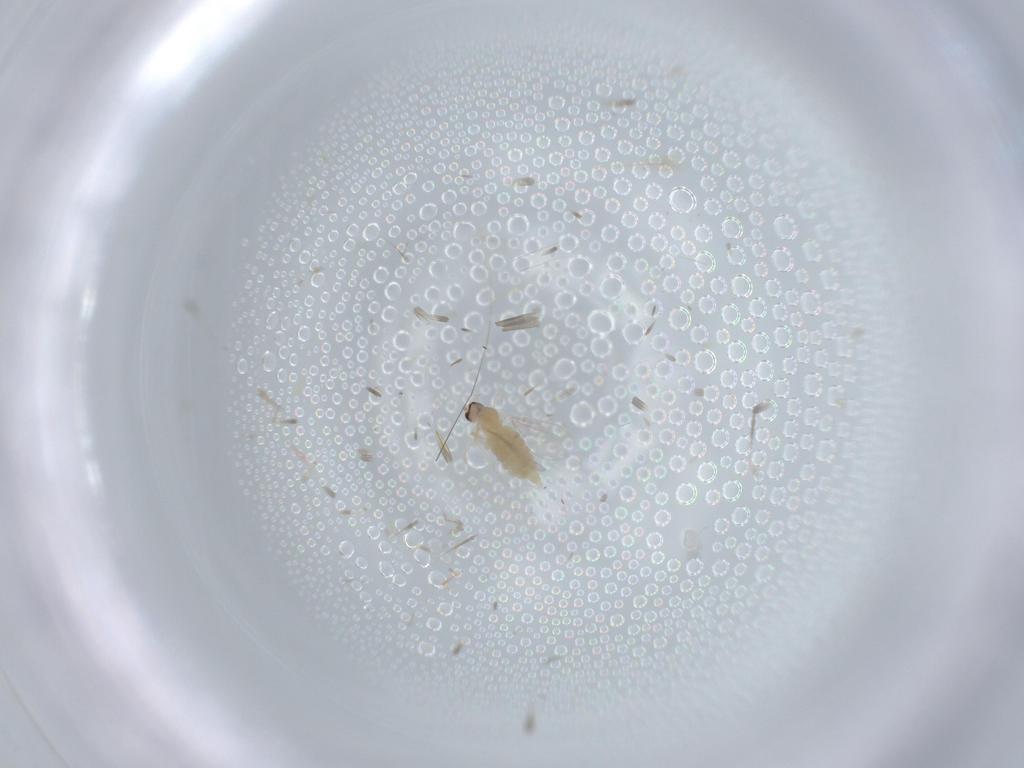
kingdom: Animalia
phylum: Arthropoda
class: Insecta
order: Diptera
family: Cecidomyiidae
